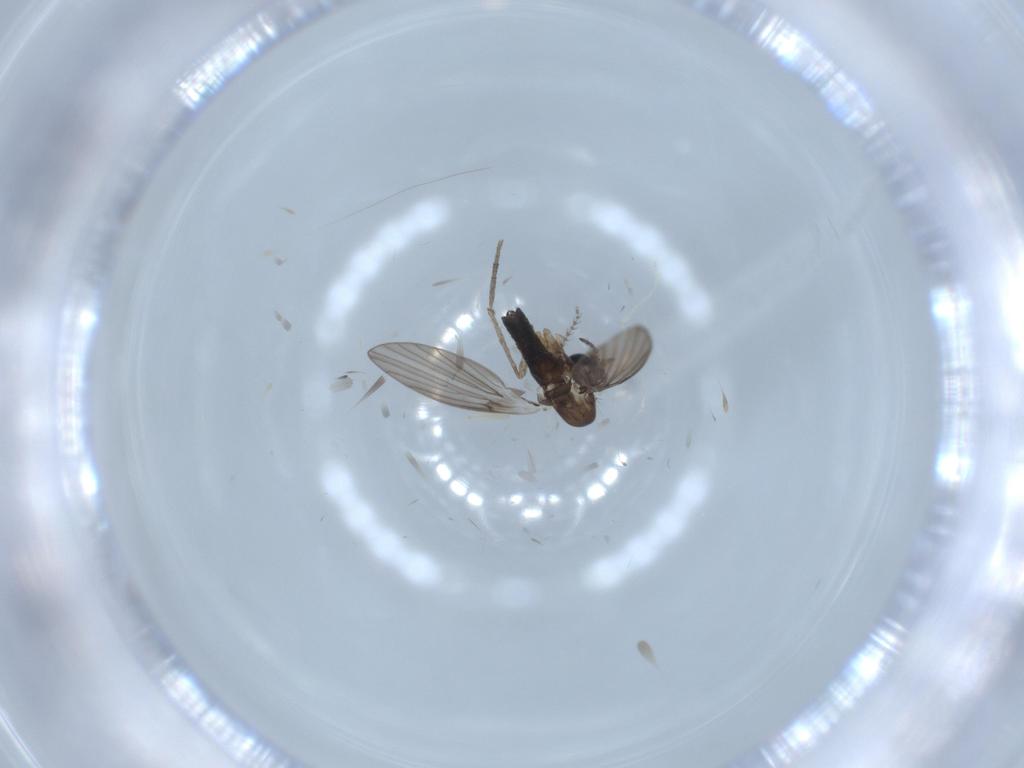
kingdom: Animalia
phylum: Arthropoda
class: Insecta
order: Diptera
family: Psychodidae
